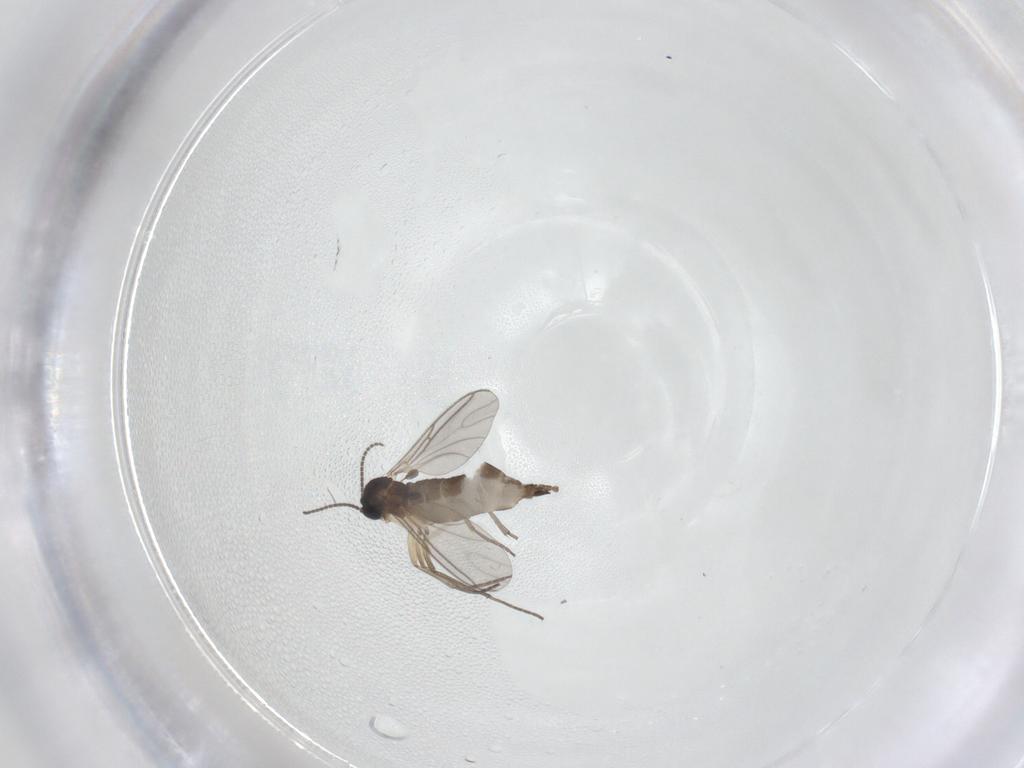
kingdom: Animalia
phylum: Arthropoda
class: Insecta
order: Diptera
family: Sciaridae
